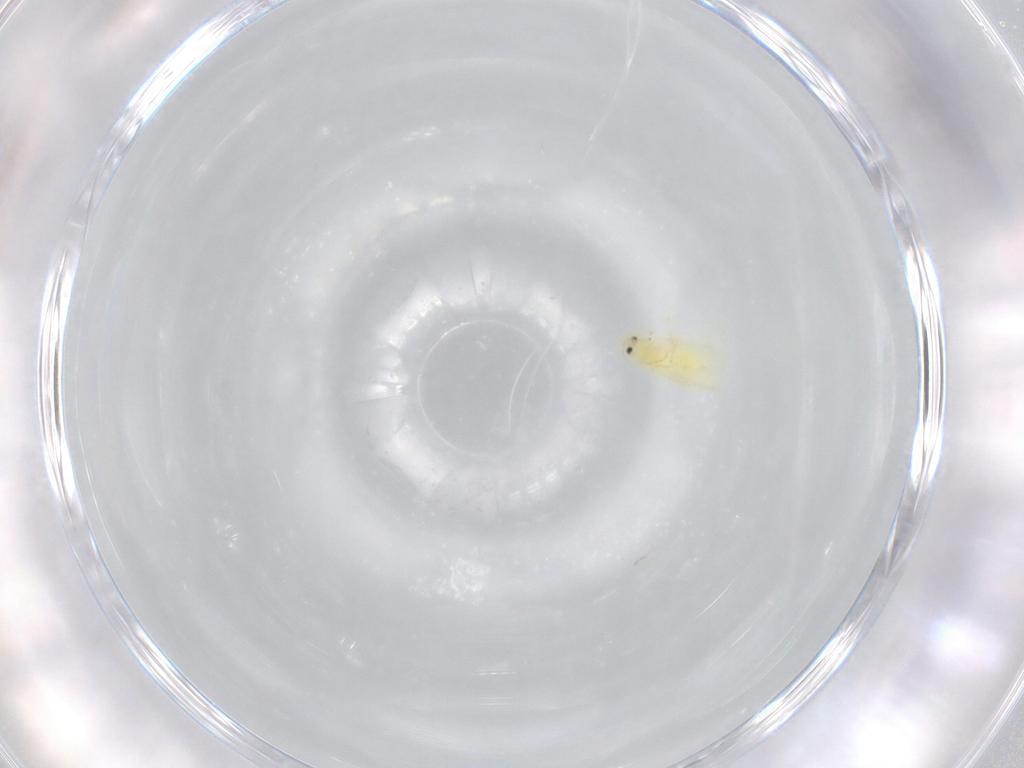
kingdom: Animalia
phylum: Arthropoda
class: Insecta
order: Hemiptera
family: Aleyrodidae
